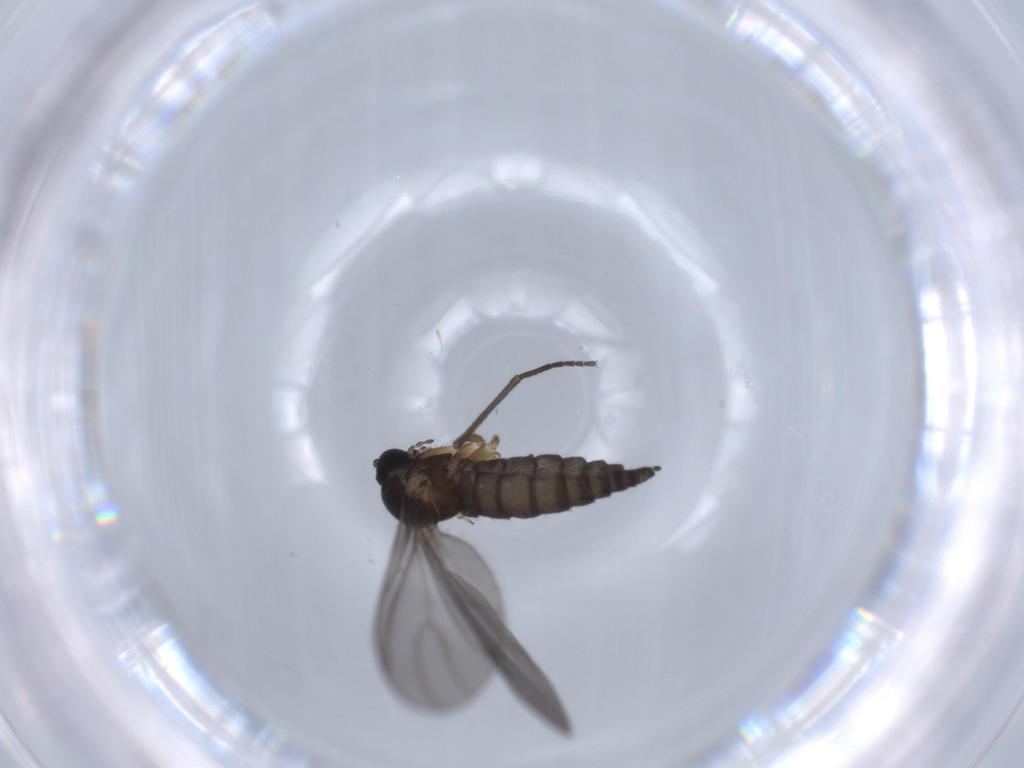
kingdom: Animalia
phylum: Arthropoda
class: Insecta
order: Diptera
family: Sciaridae
